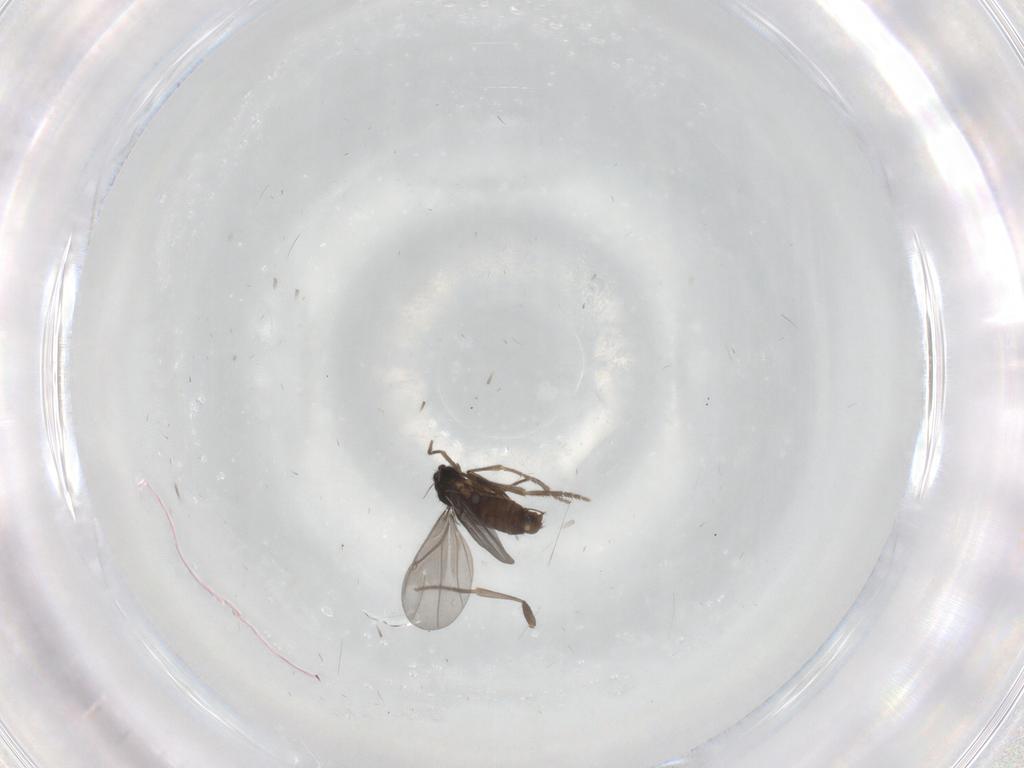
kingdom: Animalia
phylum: Arthropoda
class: Insecta
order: Diptera
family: Phoridae
